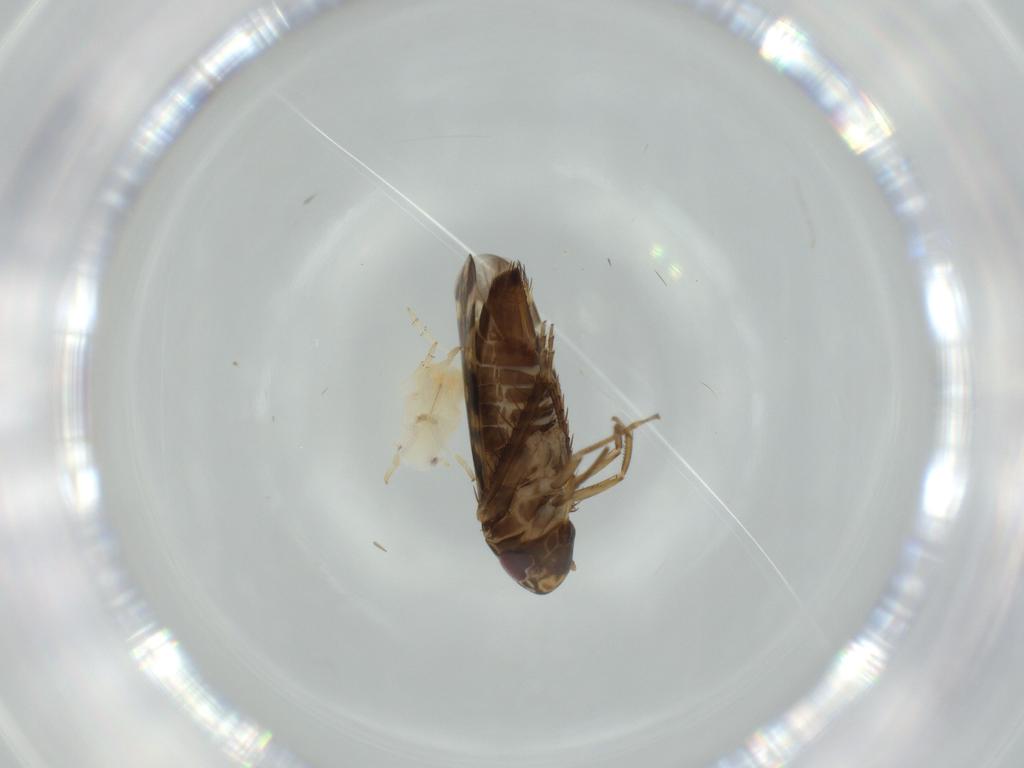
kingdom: Animalia
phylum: Arthropoda
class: Insecta
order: Hemiptera
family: Cicadellidae
